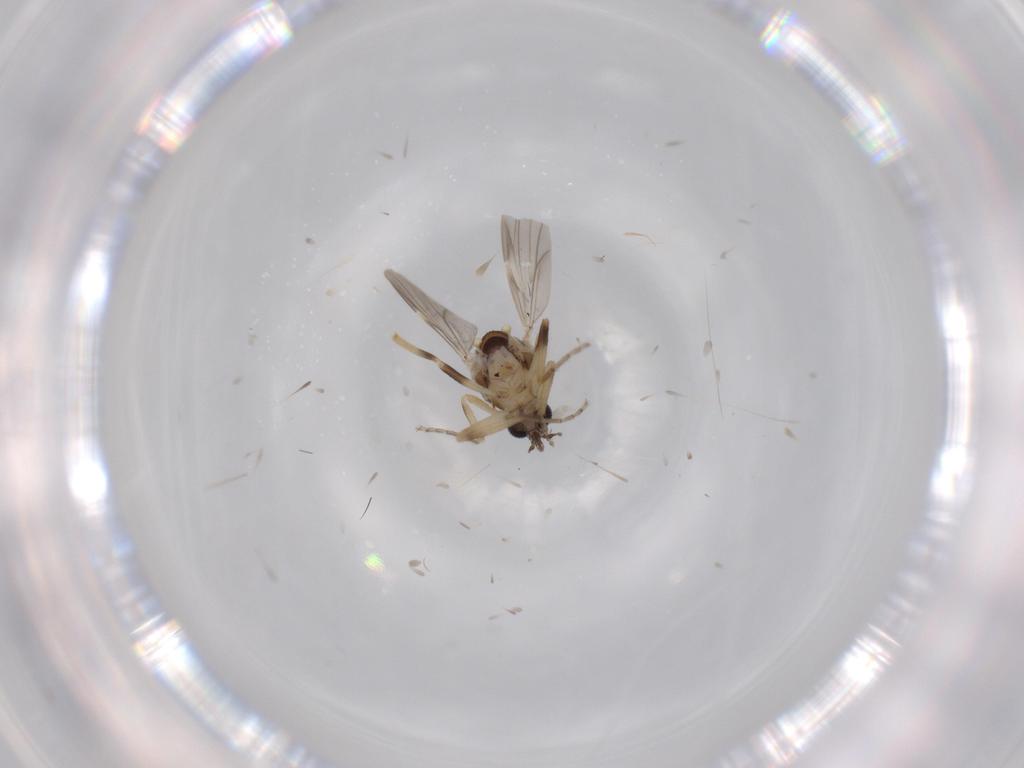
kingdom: Animalia
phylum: Arthropoda
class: Insecta
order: Diptera
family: Ceratopogonidae
